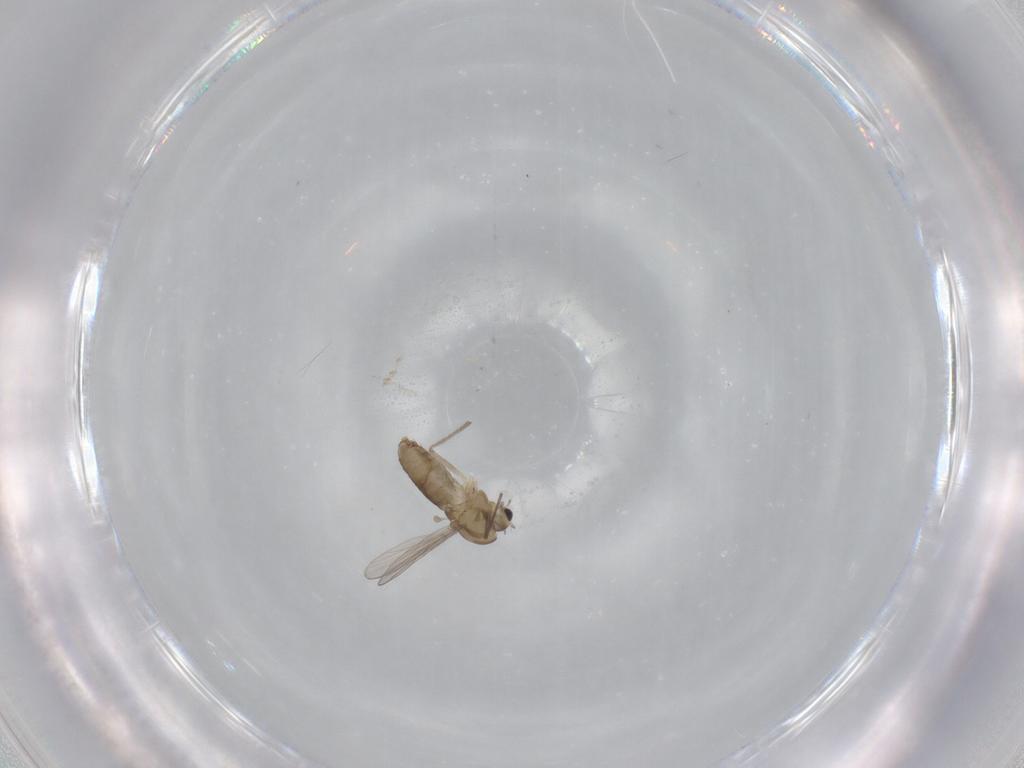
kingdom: Animalia
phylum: Arthropoda
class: Insecta
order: Diptera
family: Chironomidae
